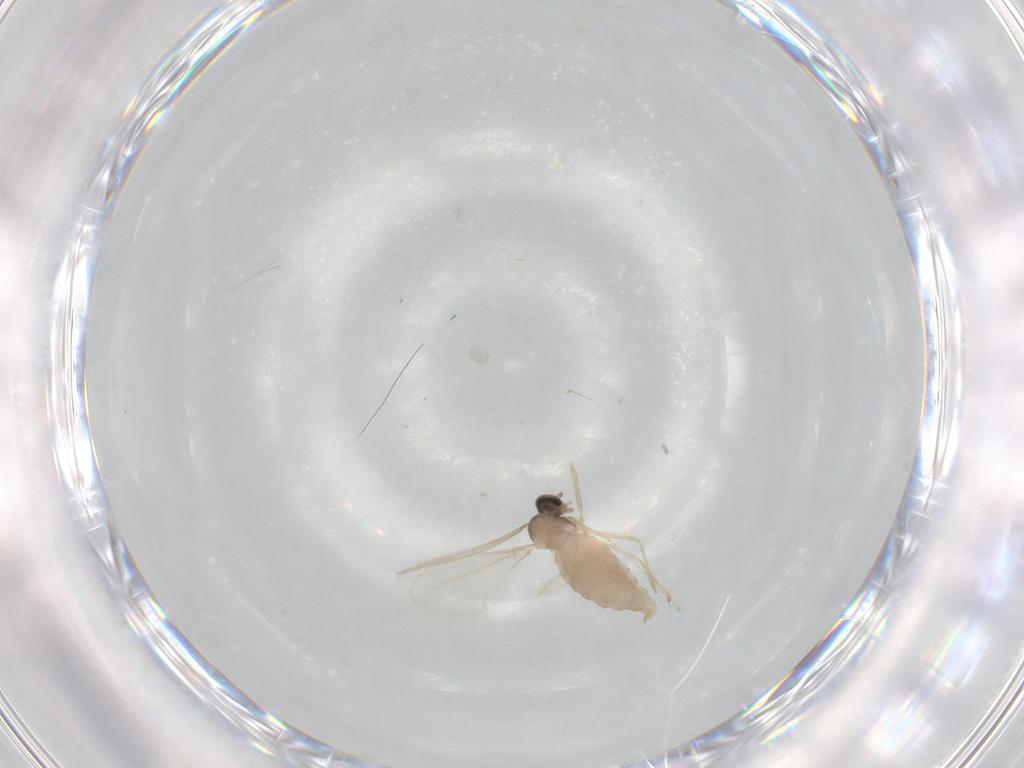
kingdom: Animalia
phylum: Arthropoda
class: Insecta
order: Diptera
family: Cecidomyiidae
